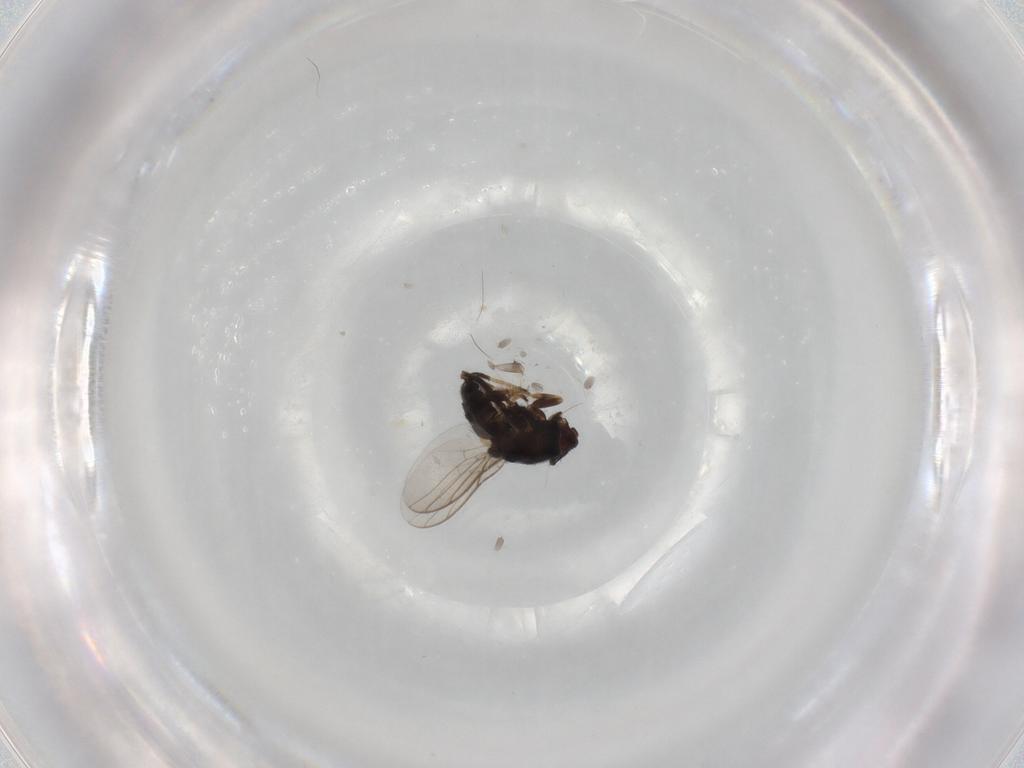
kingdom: Animalia
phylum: Arthropoda
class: Insecta
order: Diptera
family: Chloropidae
